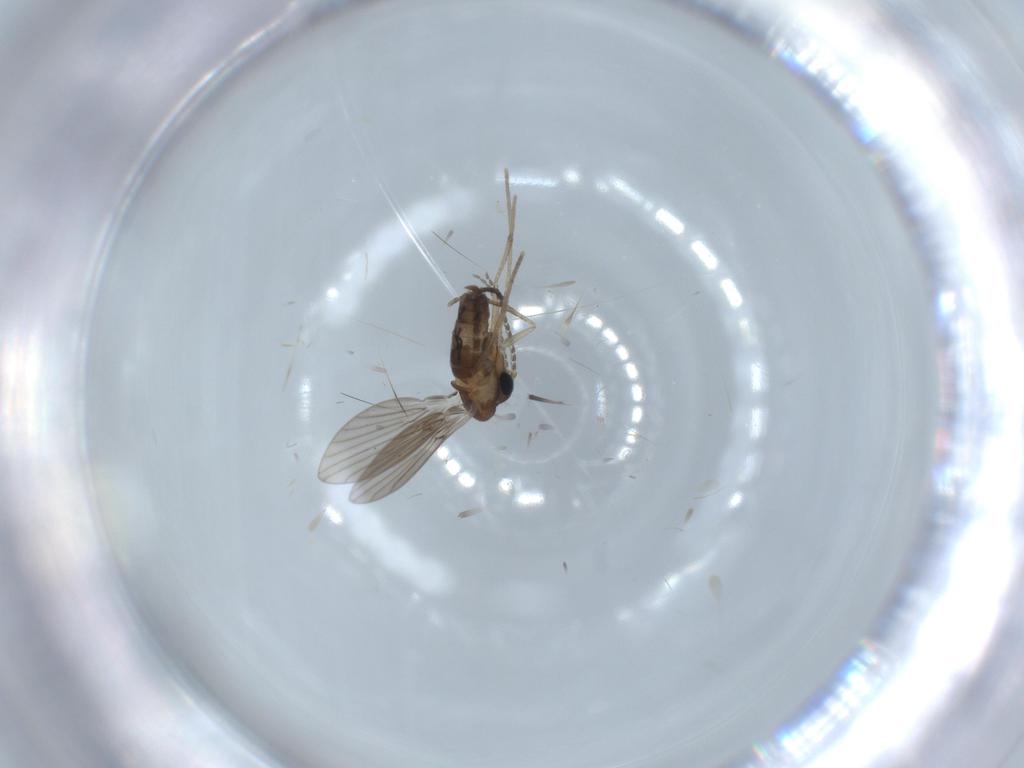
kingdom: Animalia
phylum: Arthropoda
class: Insecta
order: Diptera
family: Psychodidae
